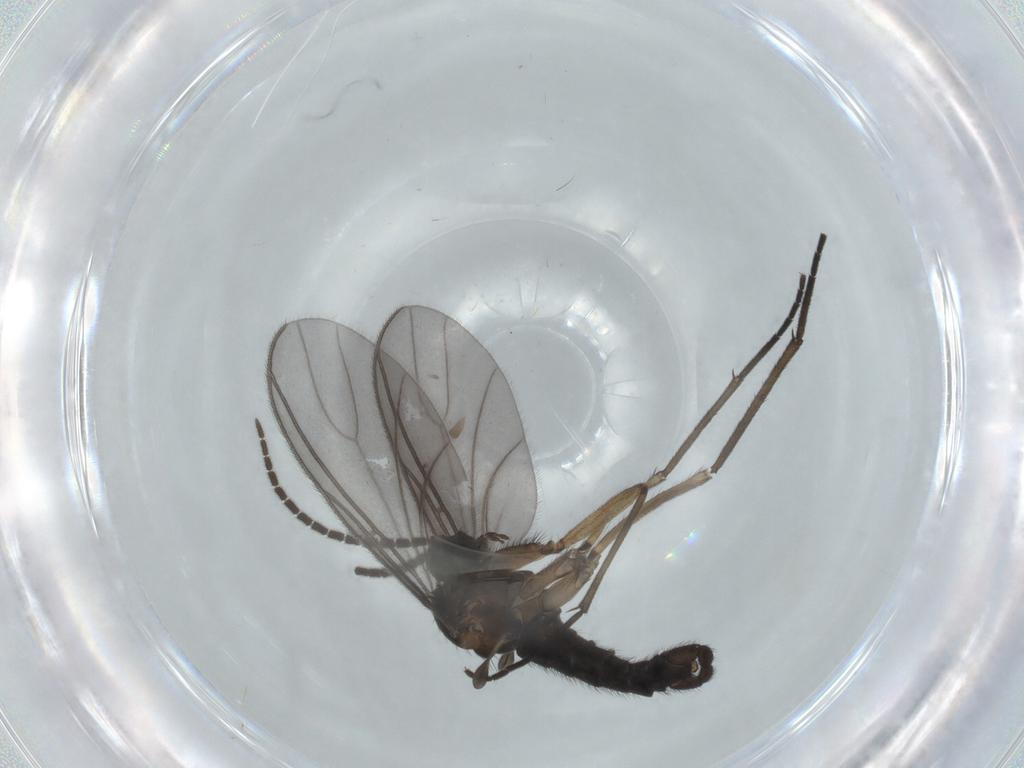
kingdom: Animalia
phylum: Arthropoda
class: Insecta
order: Diptera
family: Sciaridae
